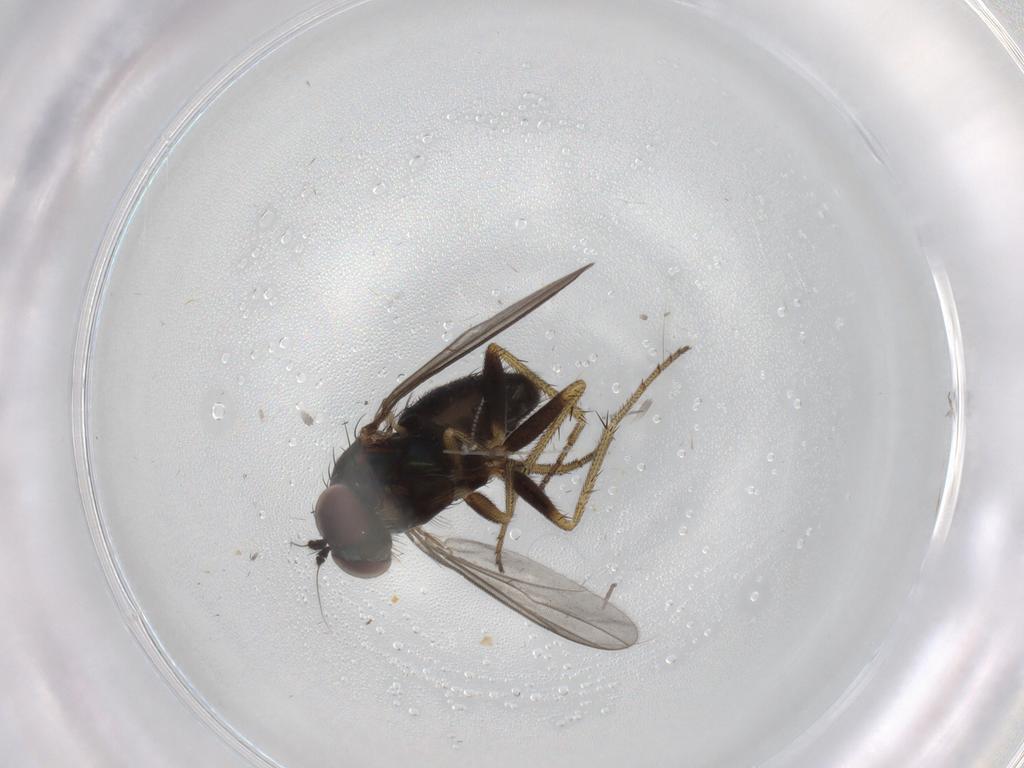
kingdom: Animalia
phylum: Arthropoda
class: Insecta
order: Diptera
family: Dolichopodidae
